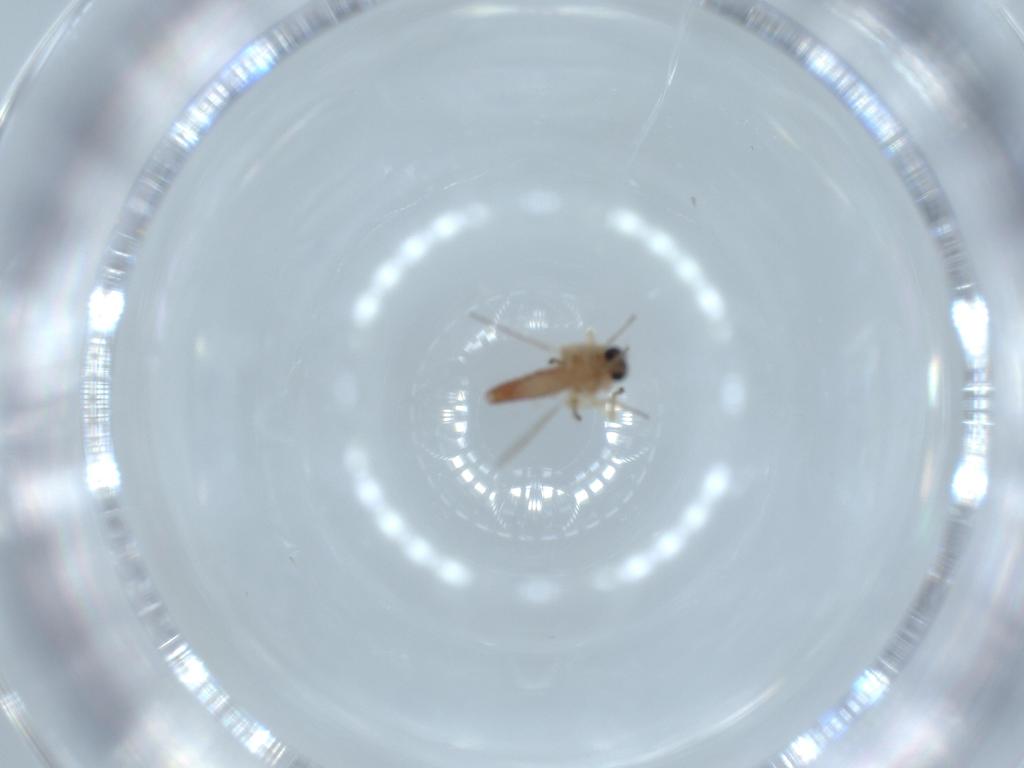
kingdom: Animalia
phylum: Arthropoda
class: Insecta
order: Diptera
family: Ceratopogonidae
